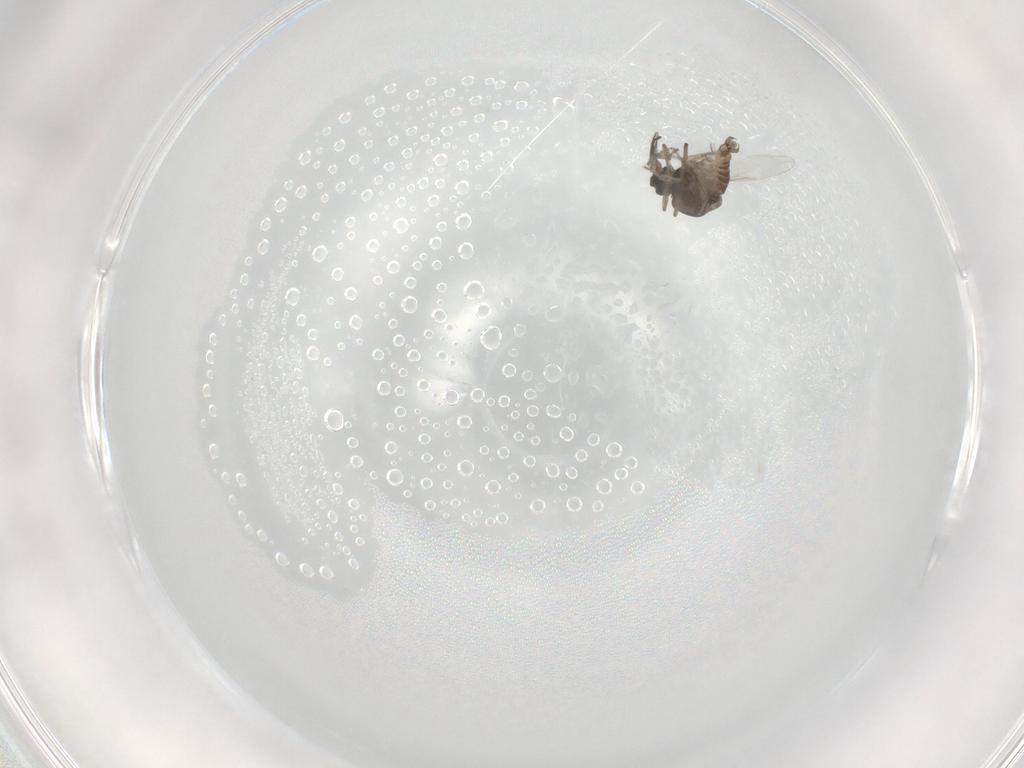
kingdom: Animalia
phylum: Arthropoda
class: Insecta
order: Diptera
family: Ceratopogonidae
